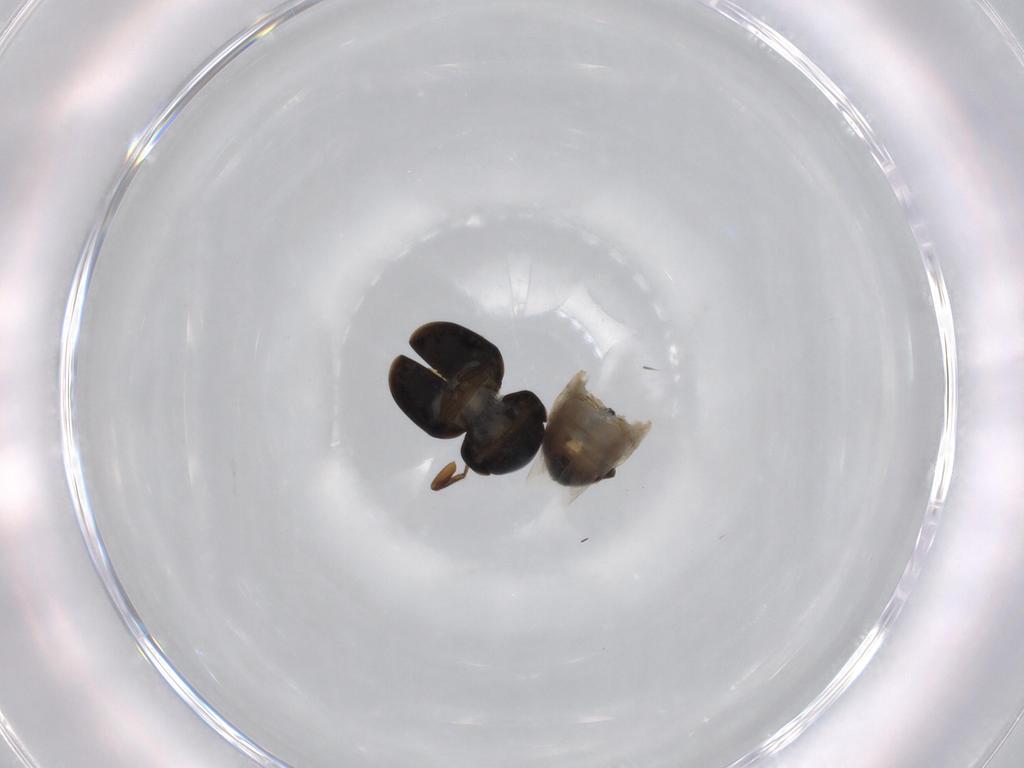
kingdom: Animalia
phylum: Arthropoda
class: Insecta
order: Coleoptera
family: Cybocephalidae
